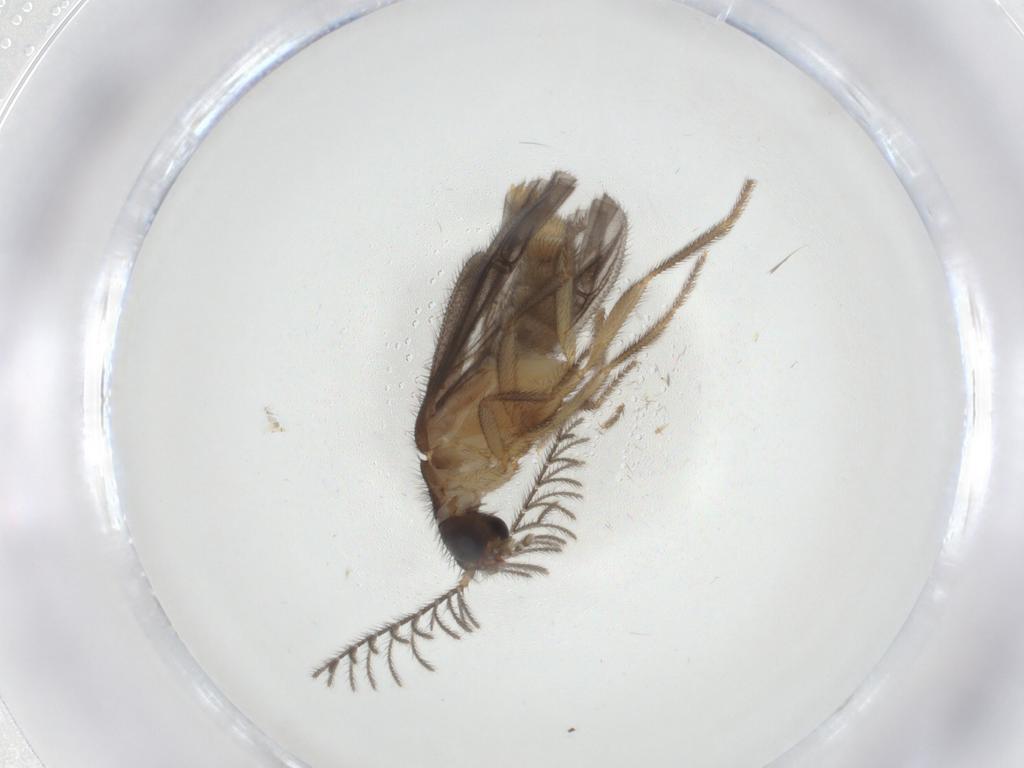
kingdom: Animalia
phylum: Arthropoda
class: Insecta
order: Coleoptera
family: Phengodidae
